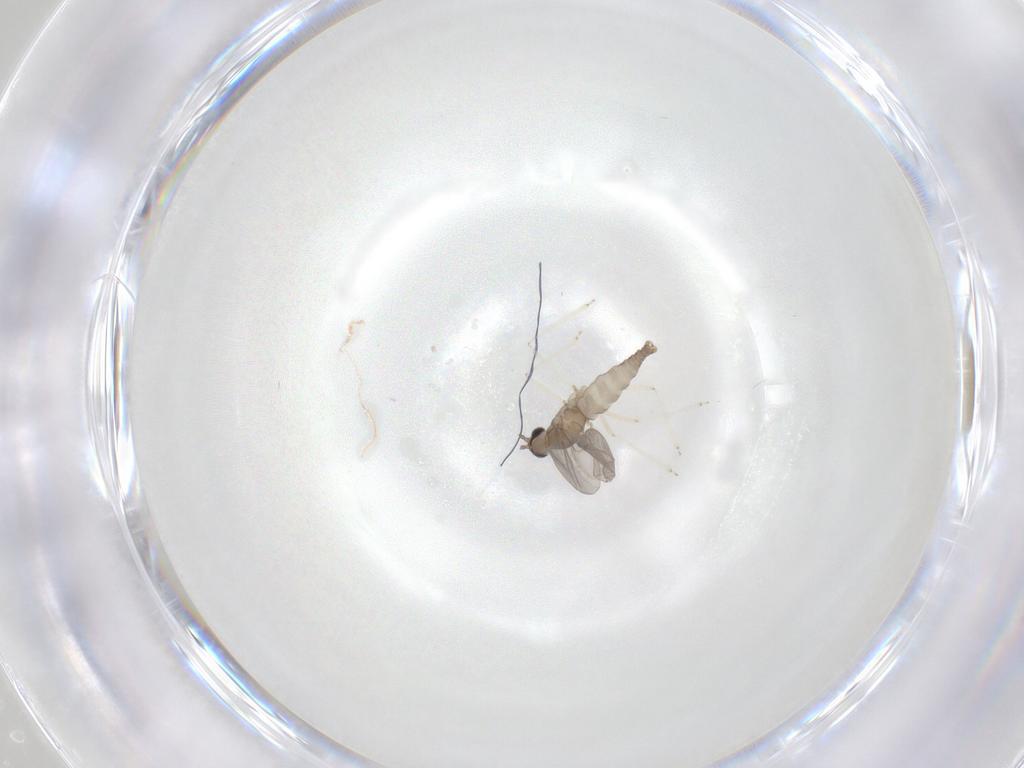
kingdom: Animalia
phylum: Arthropoda
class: Insecta
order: Diptera
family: Cecidomyiidae
